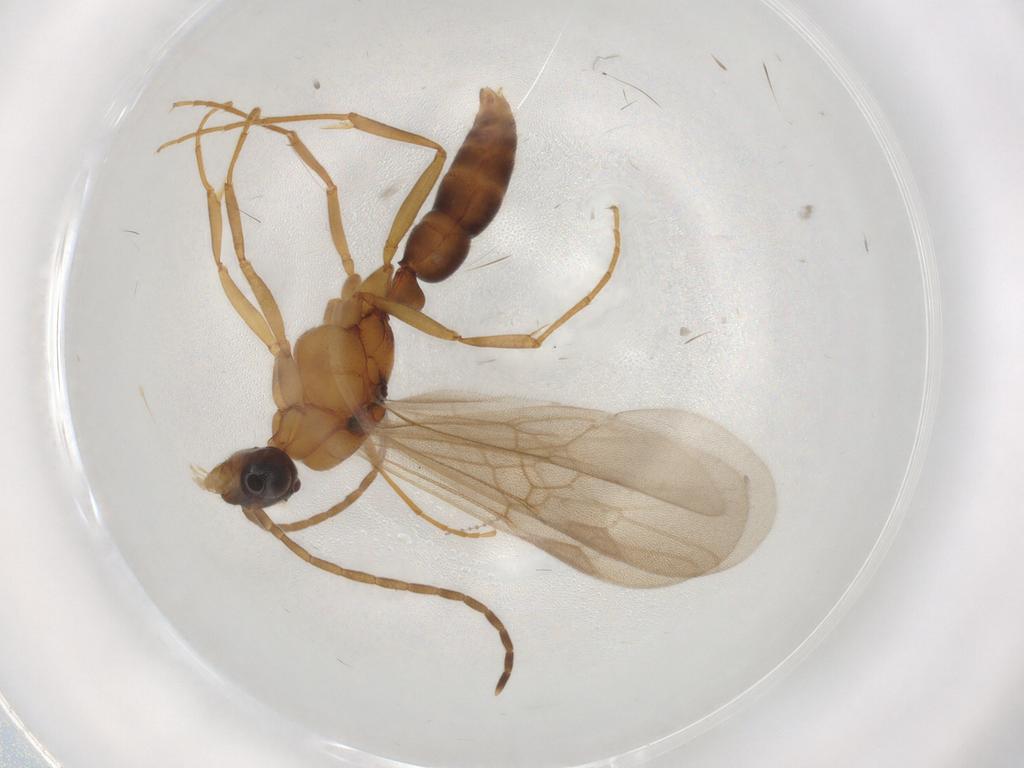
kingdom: Animalia
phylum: Arthropoda
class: Insecta
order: Hymenoptera
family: Formicidae
